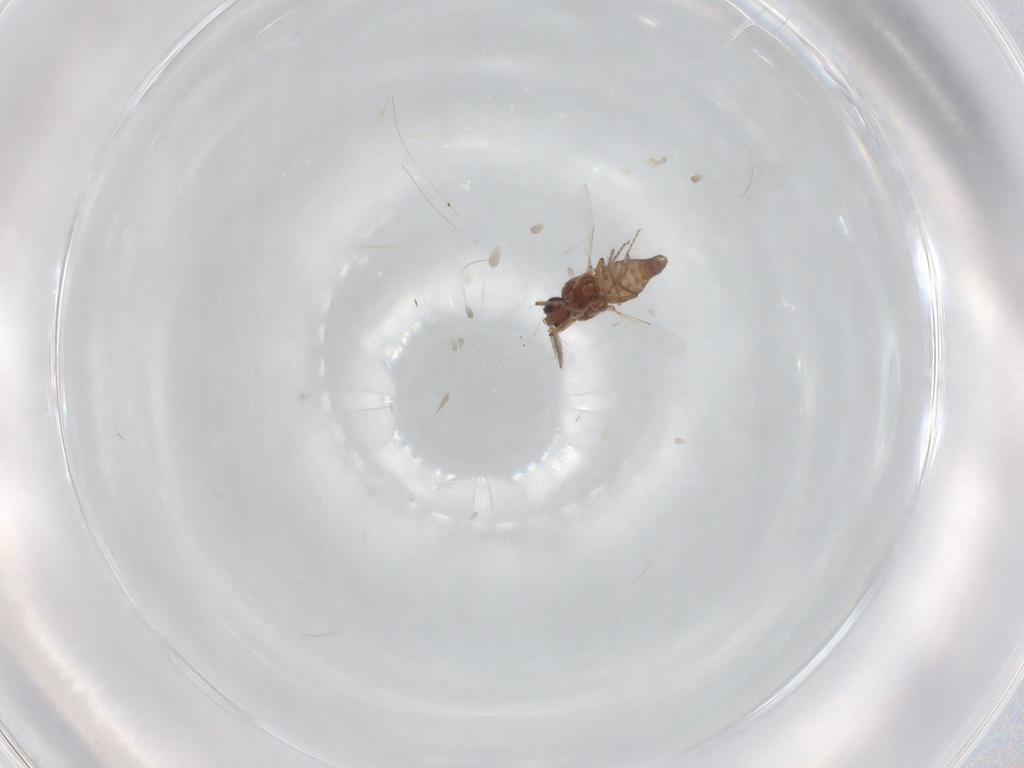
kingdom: Animalia
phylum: Arthropoda
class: Insecta
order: Diptera
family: Ceratopogonidae
